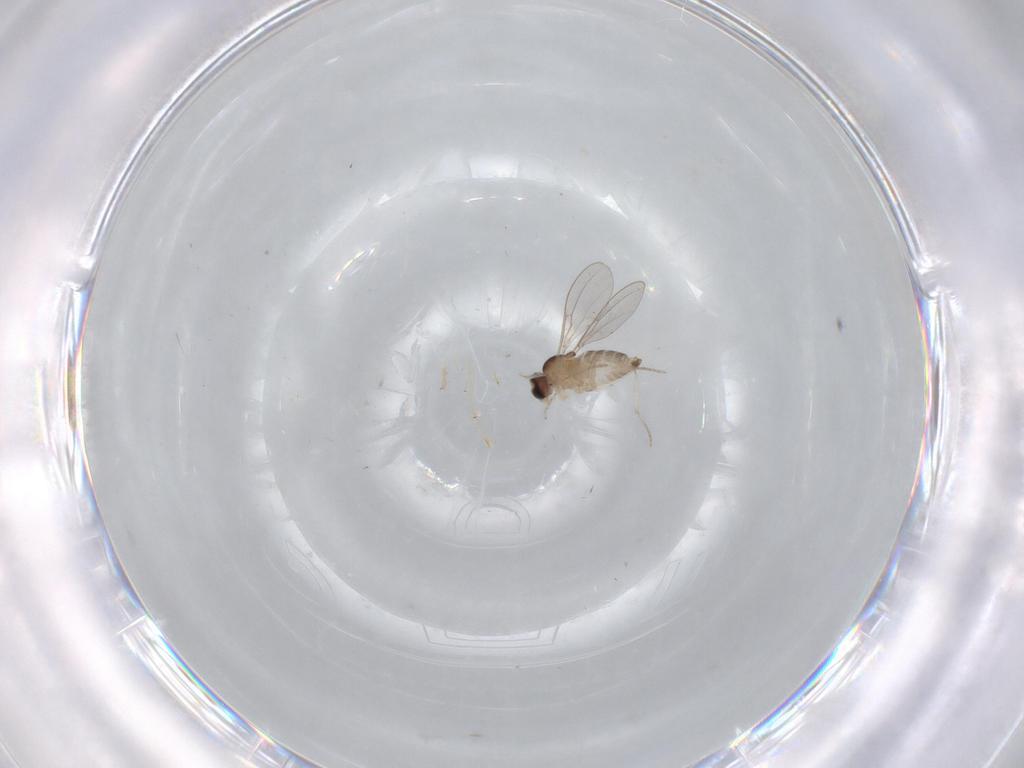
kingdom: Animalia
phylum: Arthropoda
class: Insecta
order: Diptera
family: Cecidomyiidae
